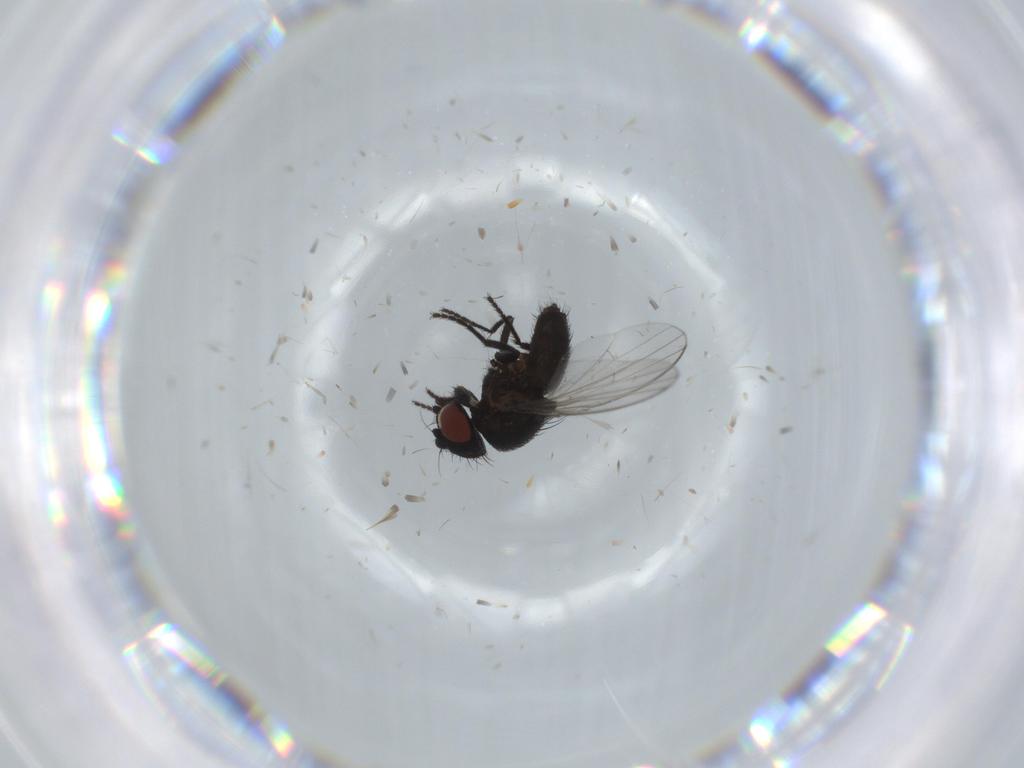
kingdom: Animalia
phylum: Arthropoda
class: Insecta
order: Diptera
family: Milichiidae
